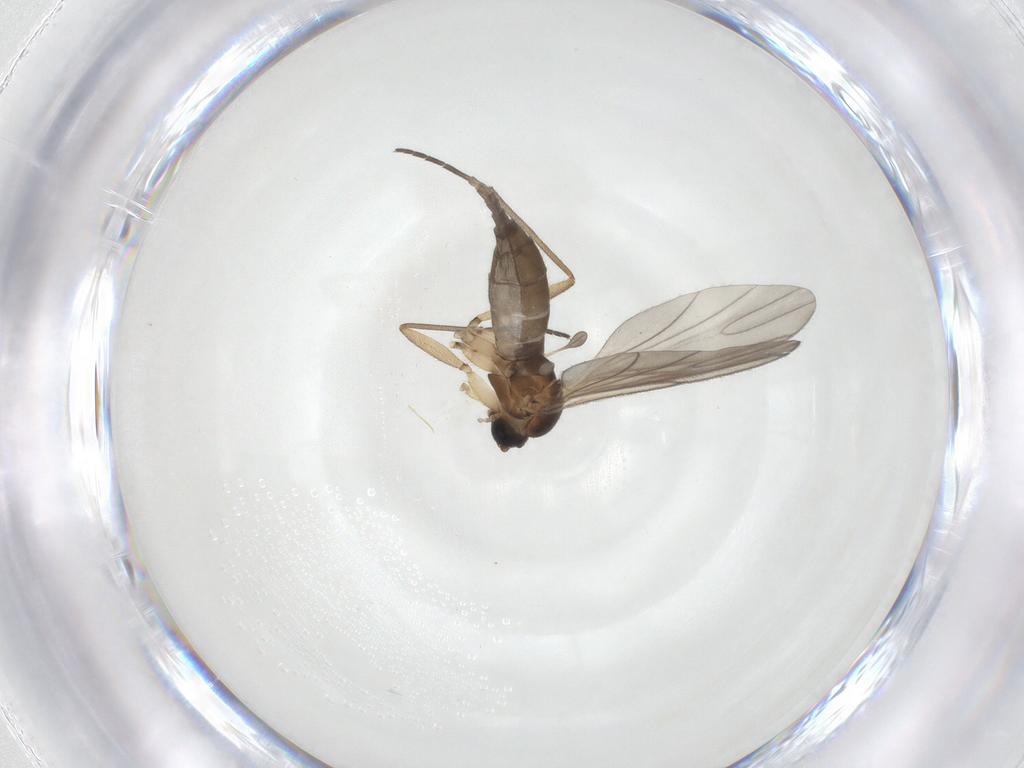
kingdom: Animalia
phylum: Arthropoda
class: Insecta
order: Diptera
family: Sciaridae
